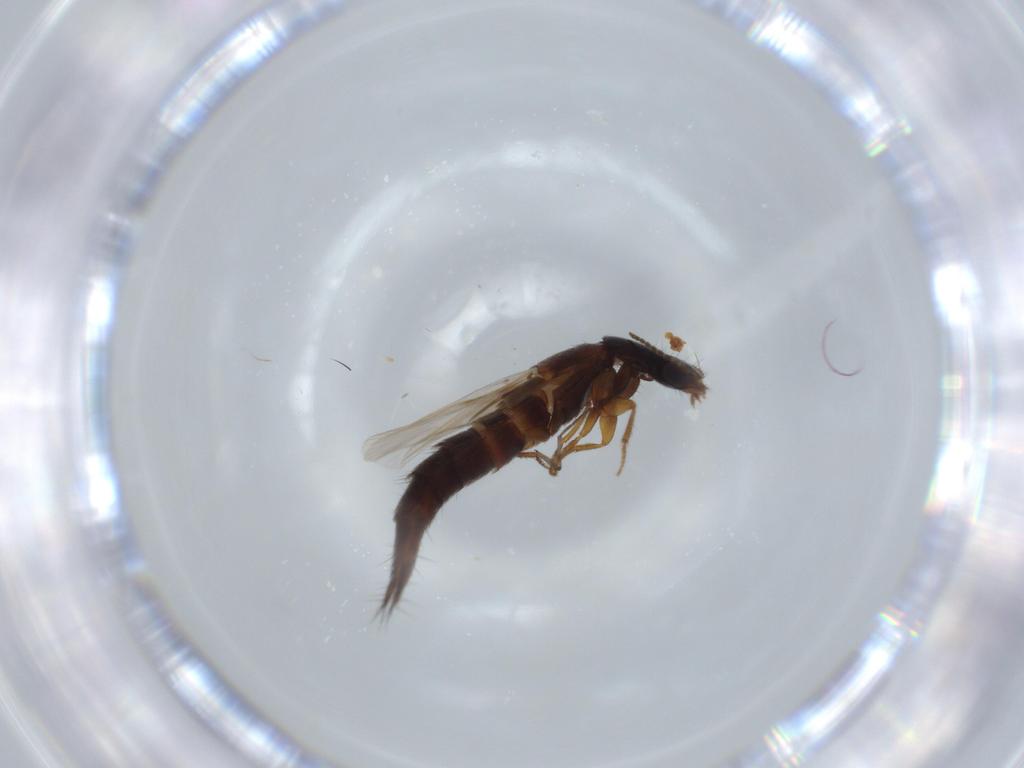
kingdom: Animalia
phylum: Arthropoda
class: Insecta
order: Coleoptera
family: Staphylinidae
